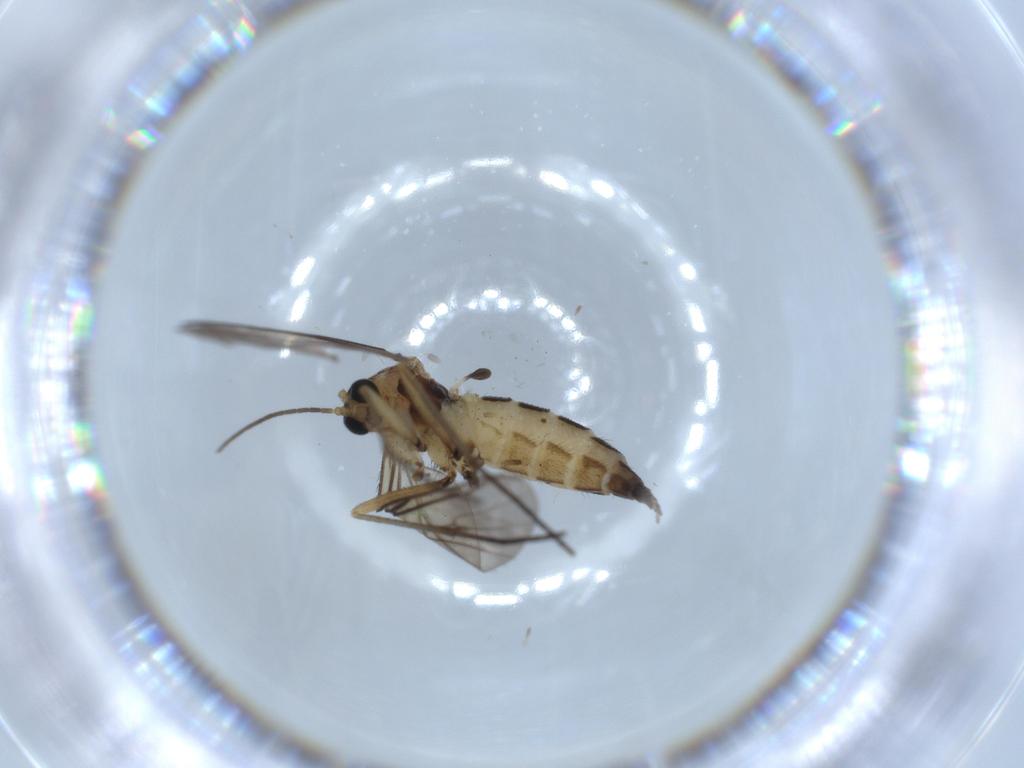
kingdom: Animalia
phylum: Arthropoda
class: Insecta
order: Diptera
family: Sciaridae
